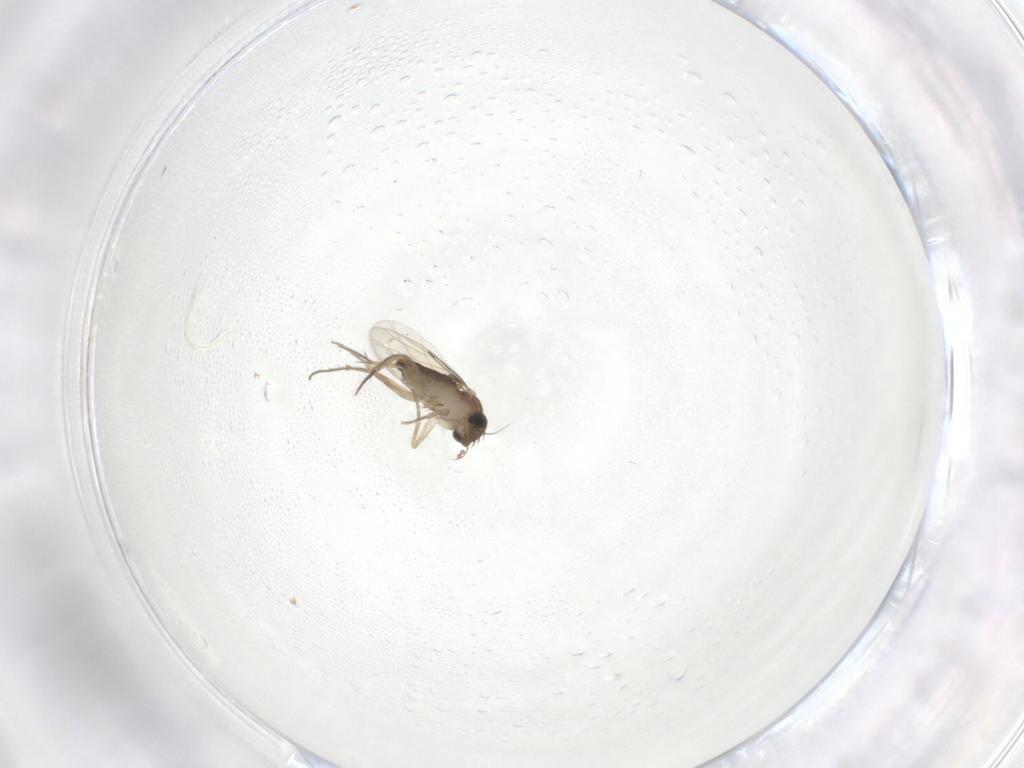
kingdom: Animalia
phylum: Arthropoda
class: Insecta
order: Diptera
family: Phoridae
